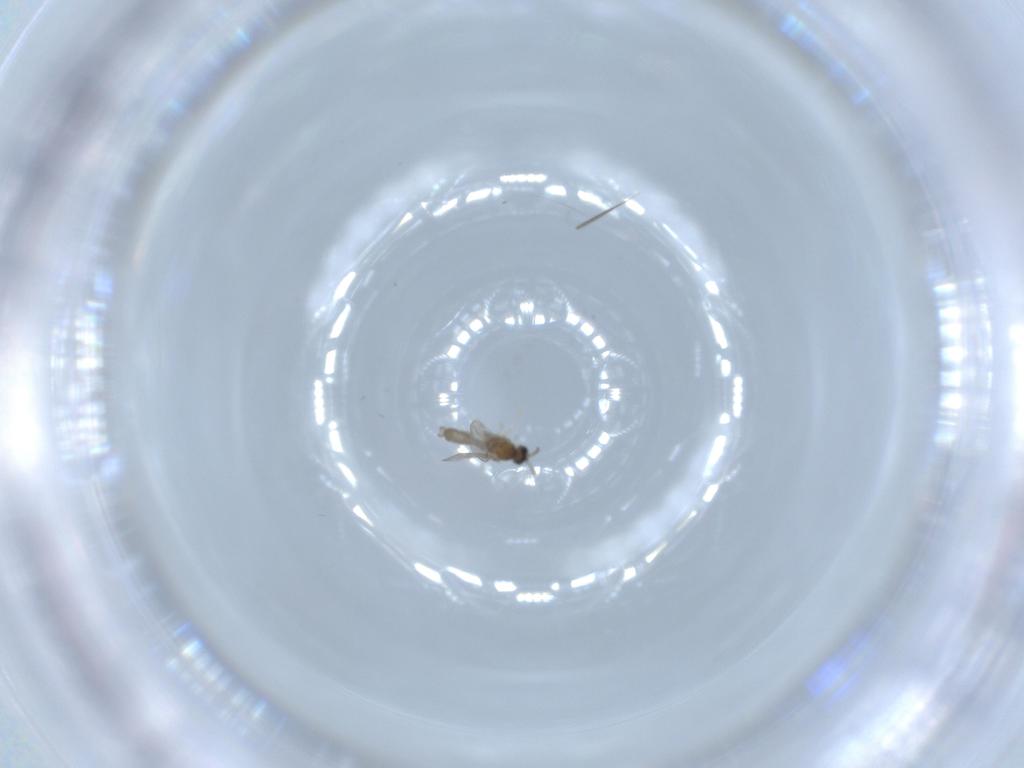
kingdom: Animalia
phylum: Arthropoda
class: Insecta
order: Diptera
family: Cecidomyiidae
